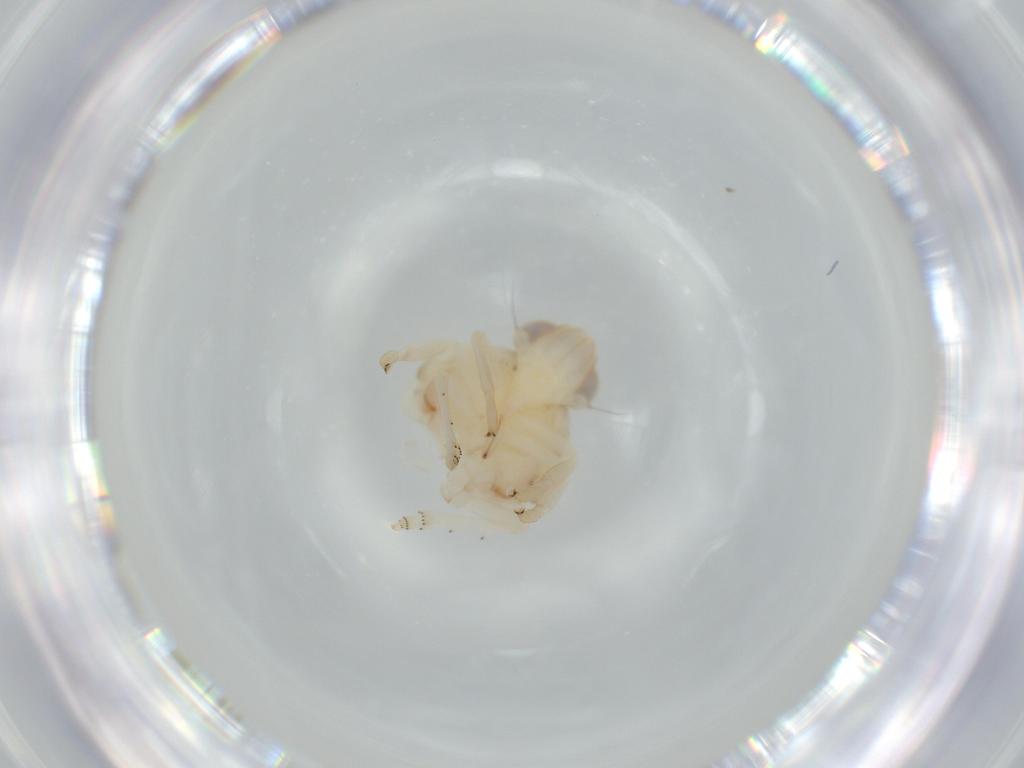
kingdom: Animalia
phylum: Arthropoda
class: Insecta
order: Hemiptera
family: Nogodinidae
